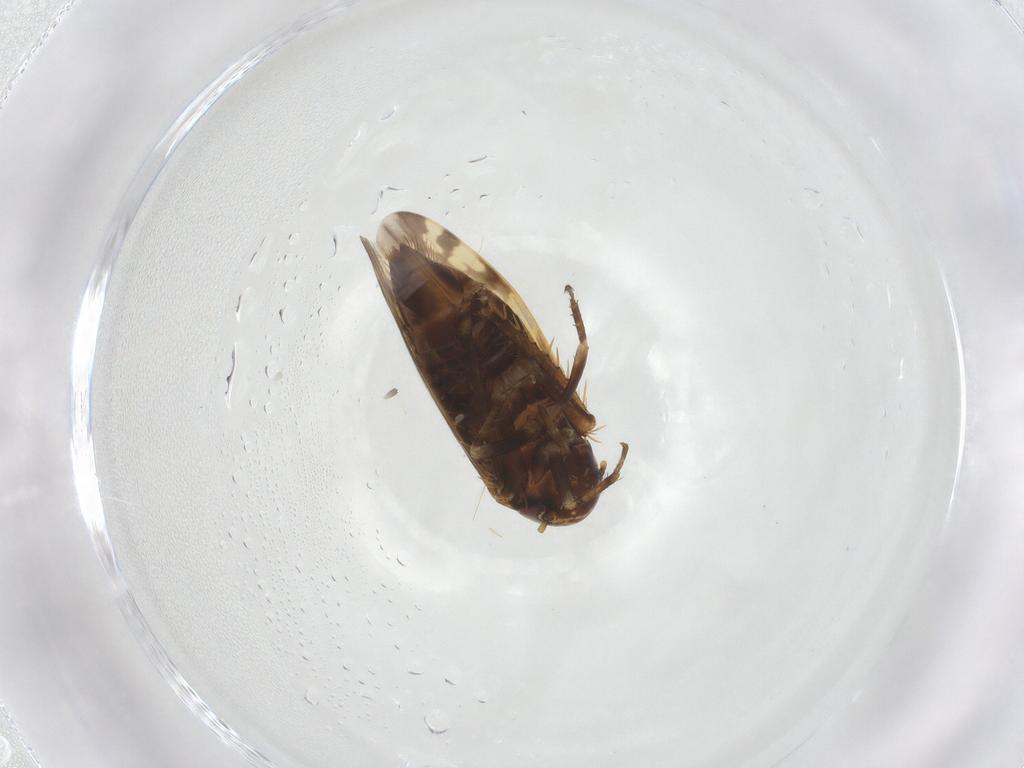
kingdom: Animalia
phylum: Arthropoda
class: Insecta
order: Hemiptera
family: Cicadellidae
